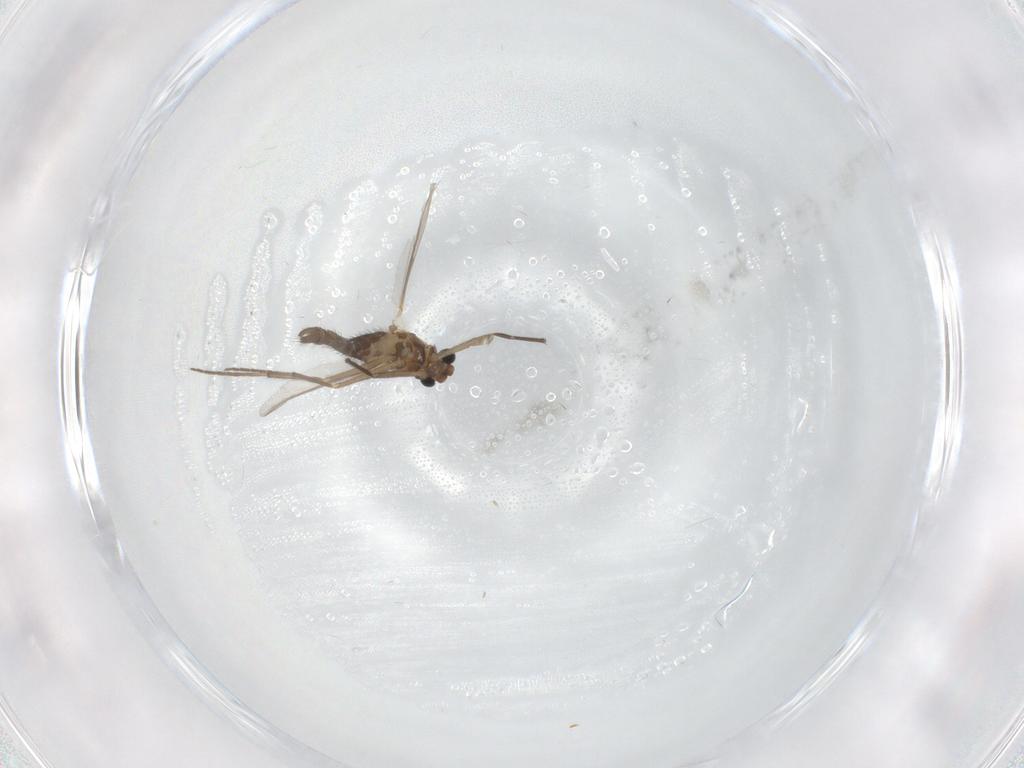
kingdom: Animalia
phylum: Arthropoda
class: Insecta
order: Diptera
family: Chironomidae
